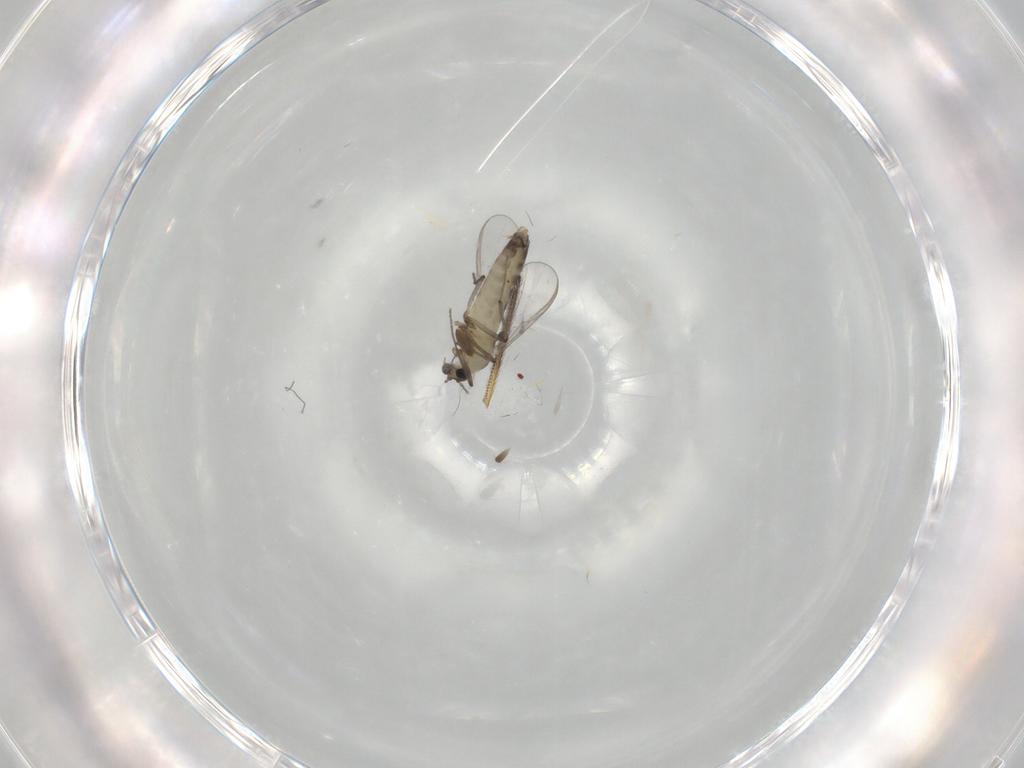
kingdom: Animalia
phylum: Arthropoda
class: Insecta
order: Diptera
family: Chironomidae
